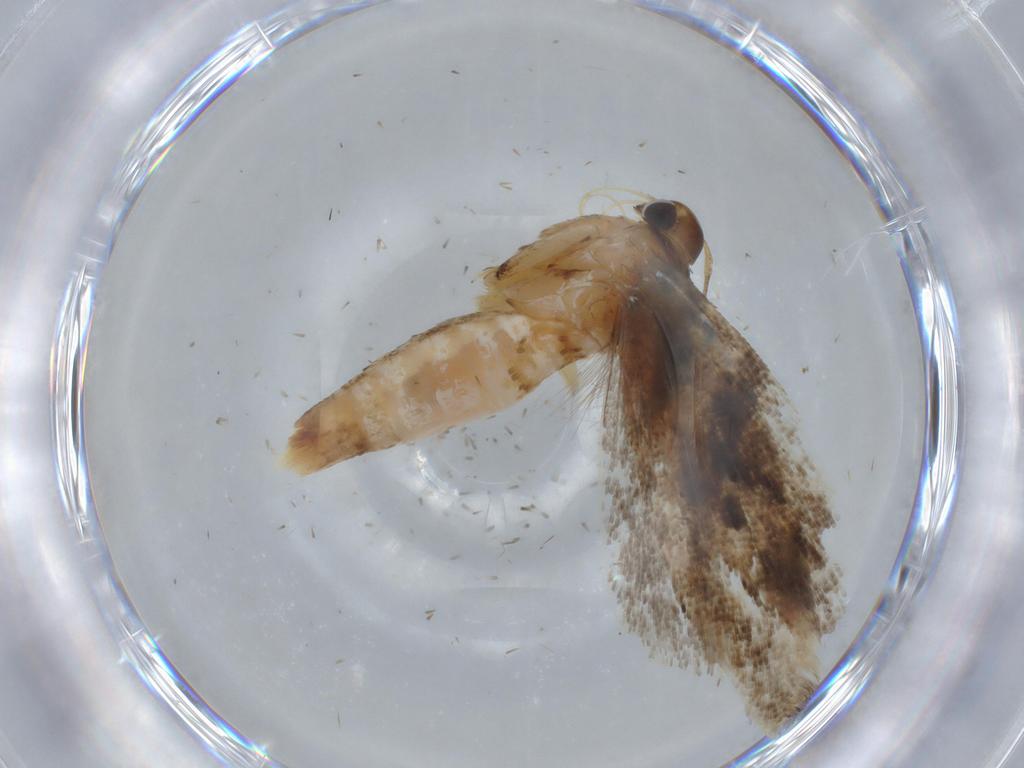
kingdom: Animalia
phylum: Arthropoda
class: Insecta
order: Lepidoptera
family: Gelechiidae
